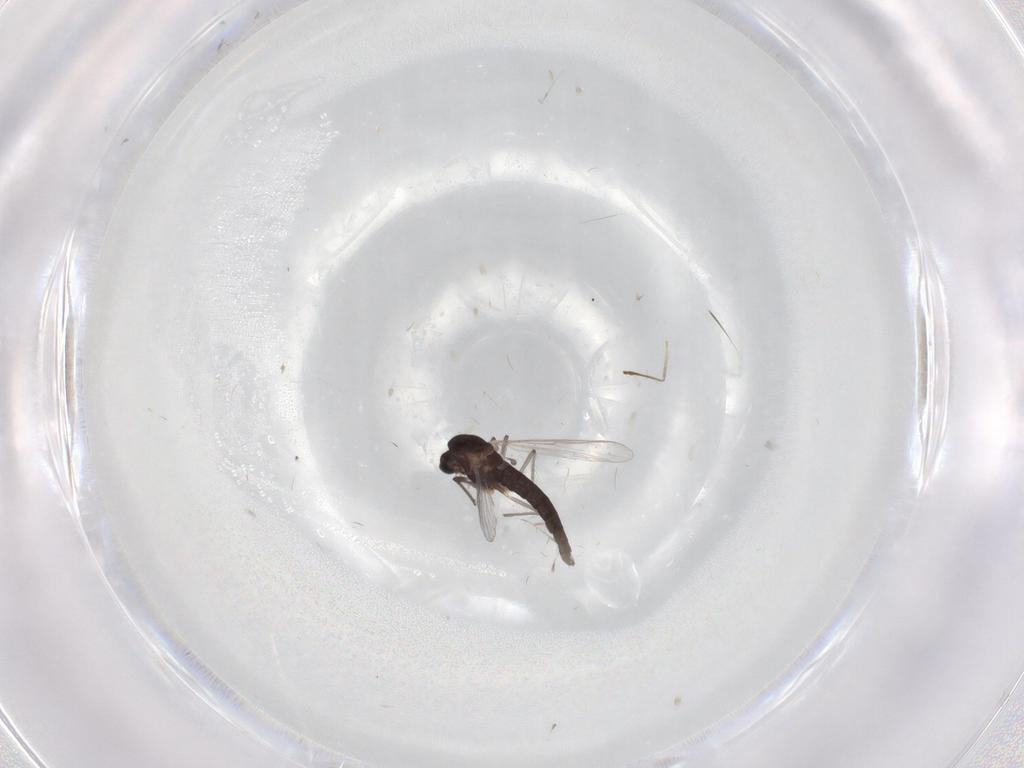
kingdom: Animalia
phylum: Arthropoda
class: Insecta
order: Diptera
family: Chironomidae
